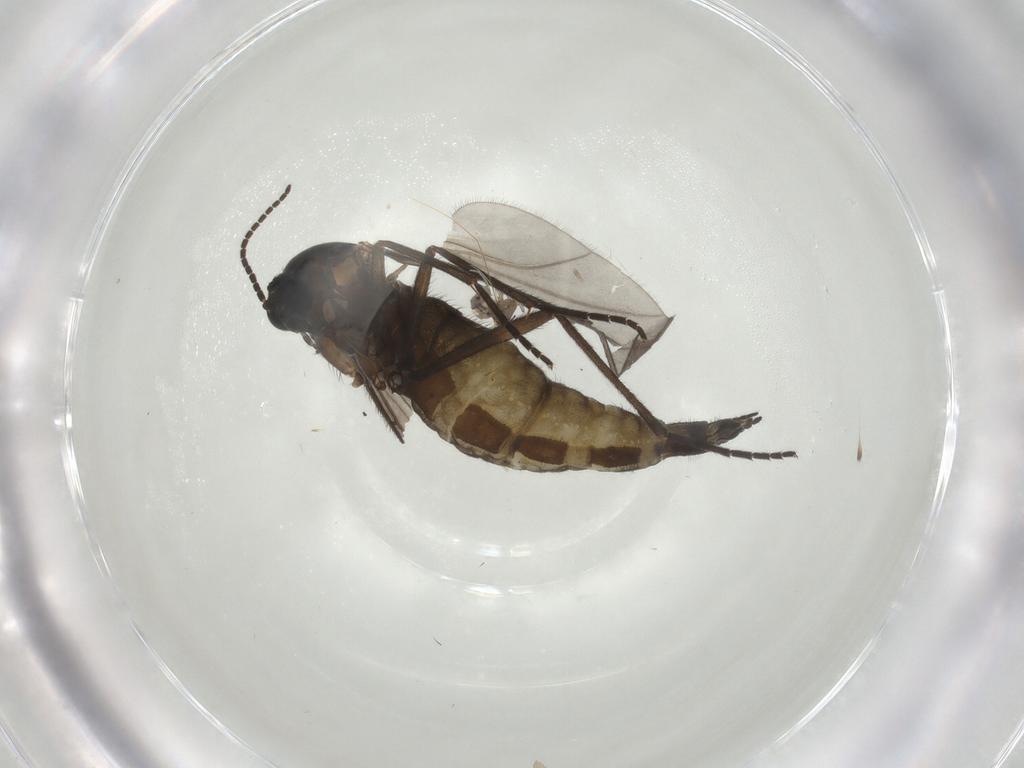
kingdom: Animalia
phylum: Arthropoda
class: Insecta
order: Diptera
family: Sciaridae
